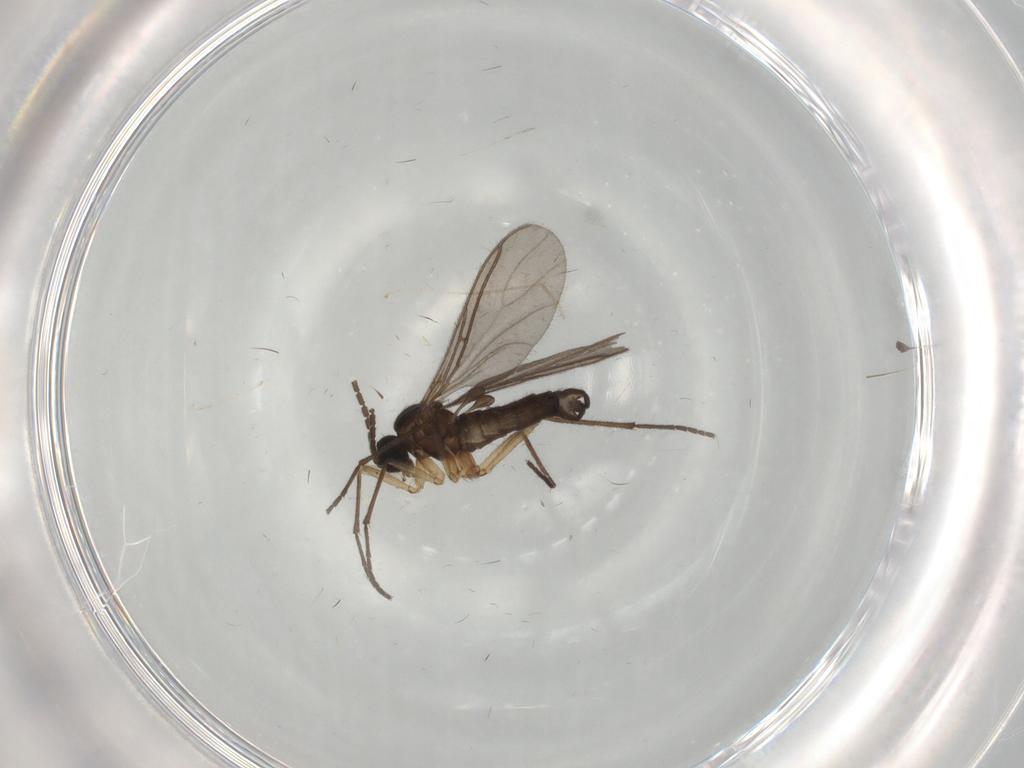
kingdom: Animalia
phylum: Arthropoda
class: Insecta
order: Diptera
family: Cecidomyiidae
